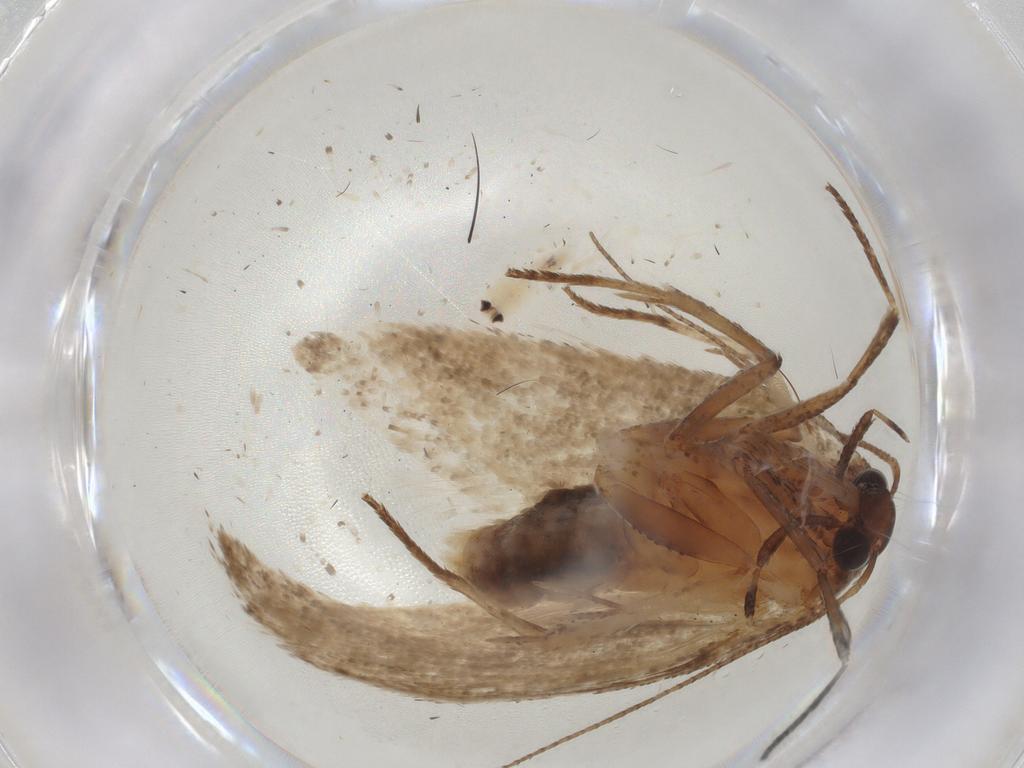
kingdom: Animalia
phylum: Arthropoda
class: Insecta
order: Lepidoptera
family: Cosmopterigidae
